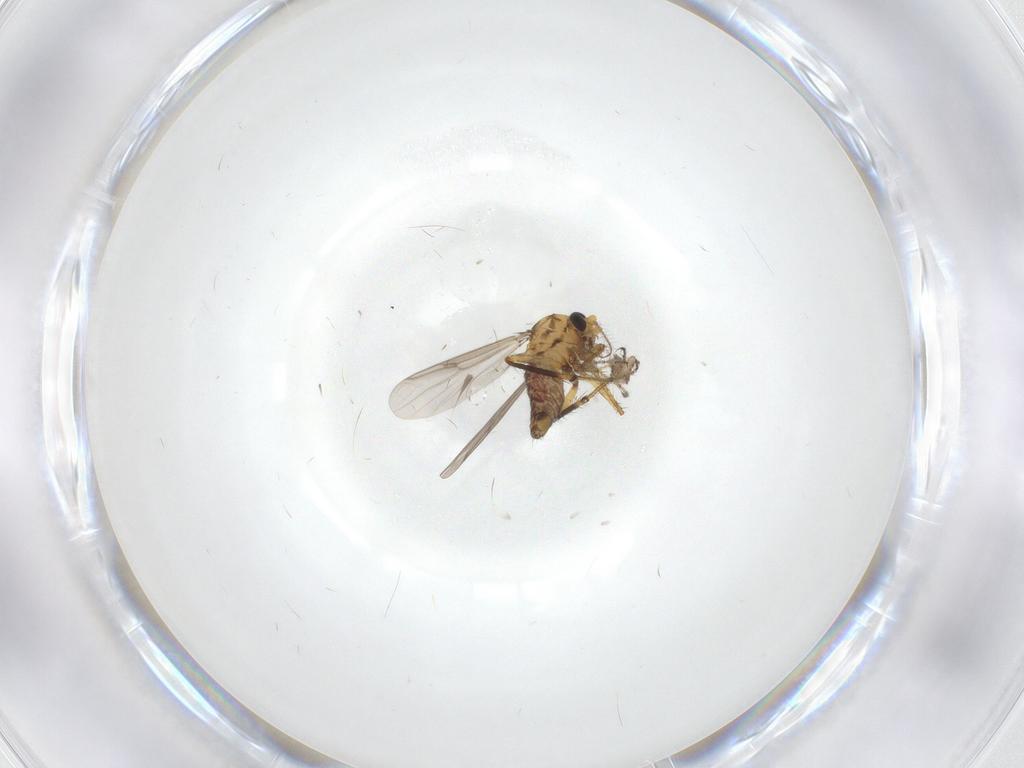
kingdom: Animalia
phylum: Arthropoda
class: Insecta
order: Diptera
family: Ceratopogonidae
